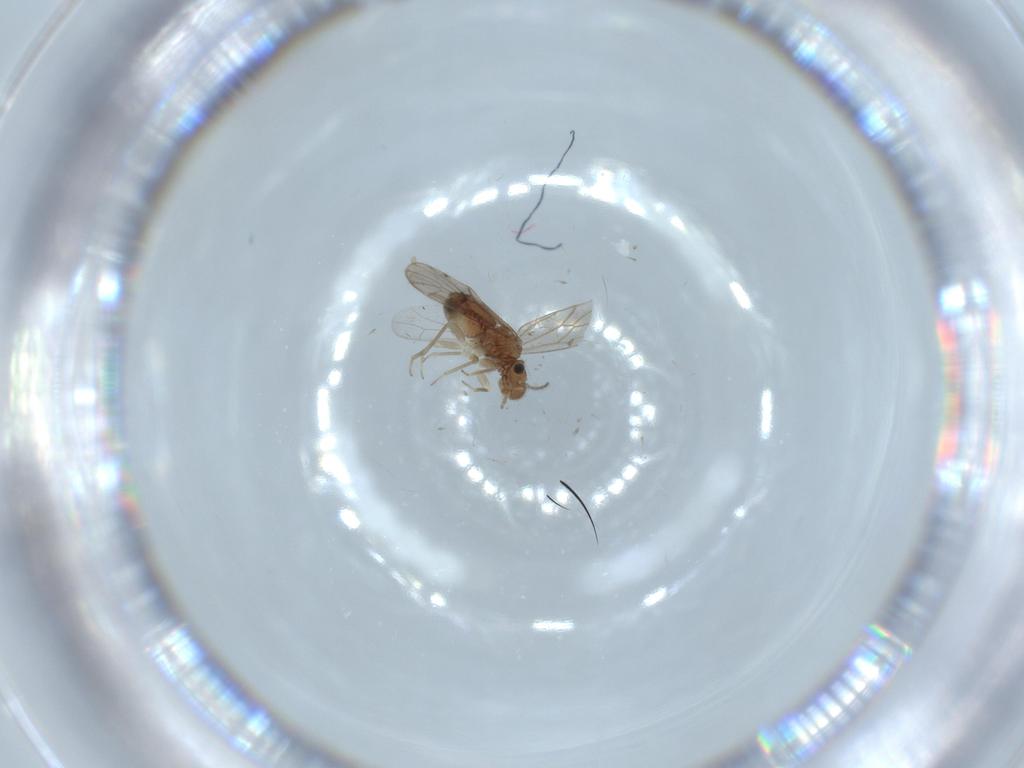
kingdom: Animalia
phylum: Arthropoda
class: Insecta
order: Psocodea
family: Ectopsocidae
